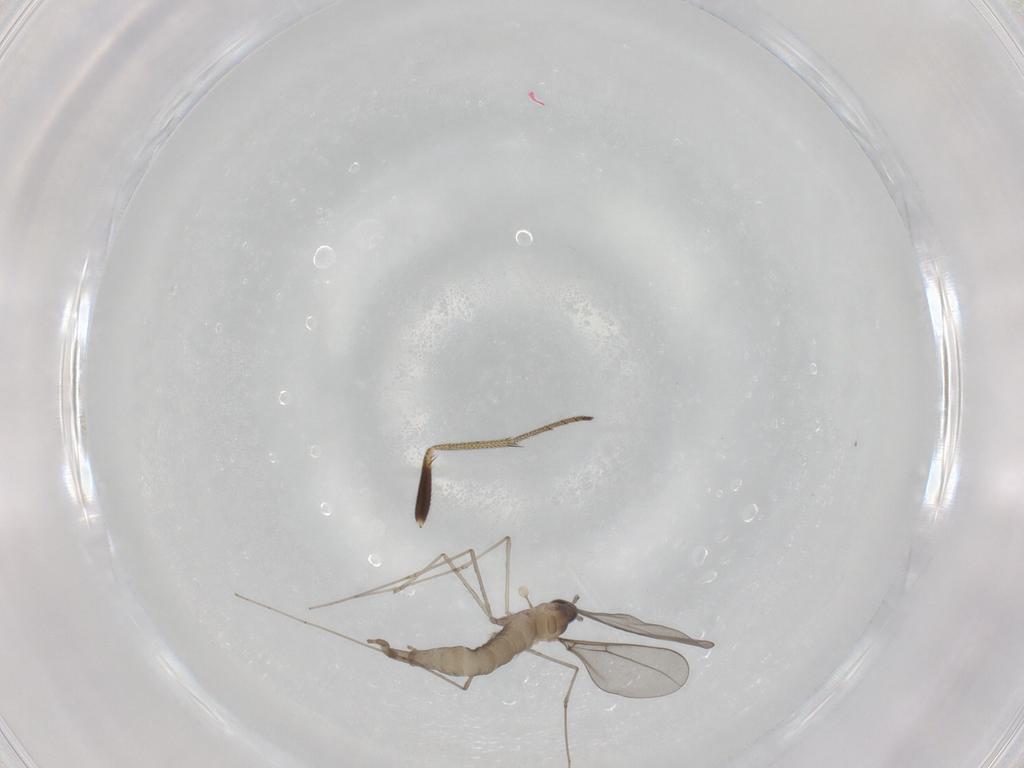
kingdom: Animalia
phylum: Arthropoda
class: Insecta
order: Diptera
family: Cecidomyiidae
